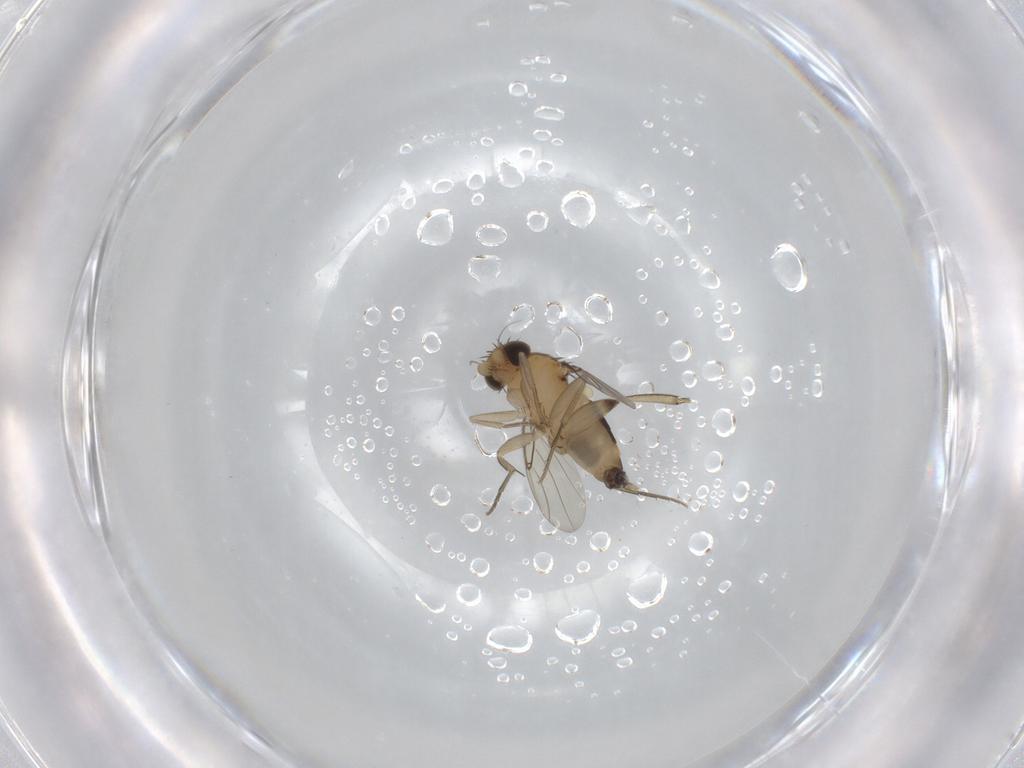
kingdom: Animalia
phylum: Arthropoda
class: Insecta
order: Diptera
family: Phoridae
